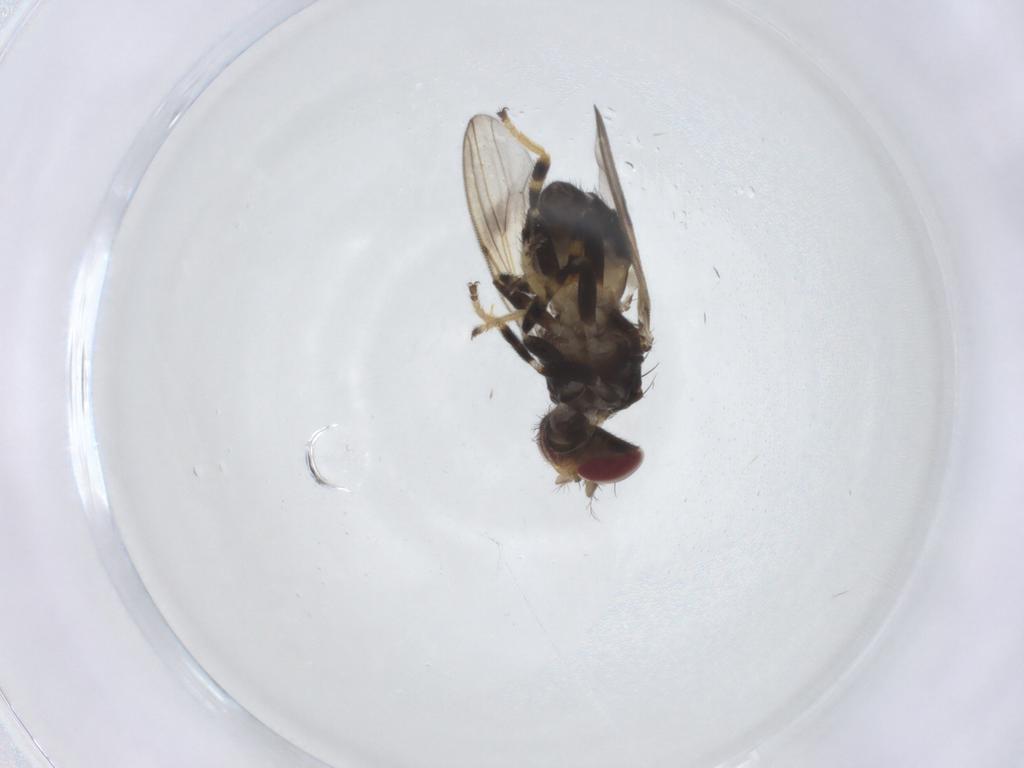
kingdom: Animalia
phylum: Arthropoda
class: Insecta
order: Diptera
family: Ephydridae
